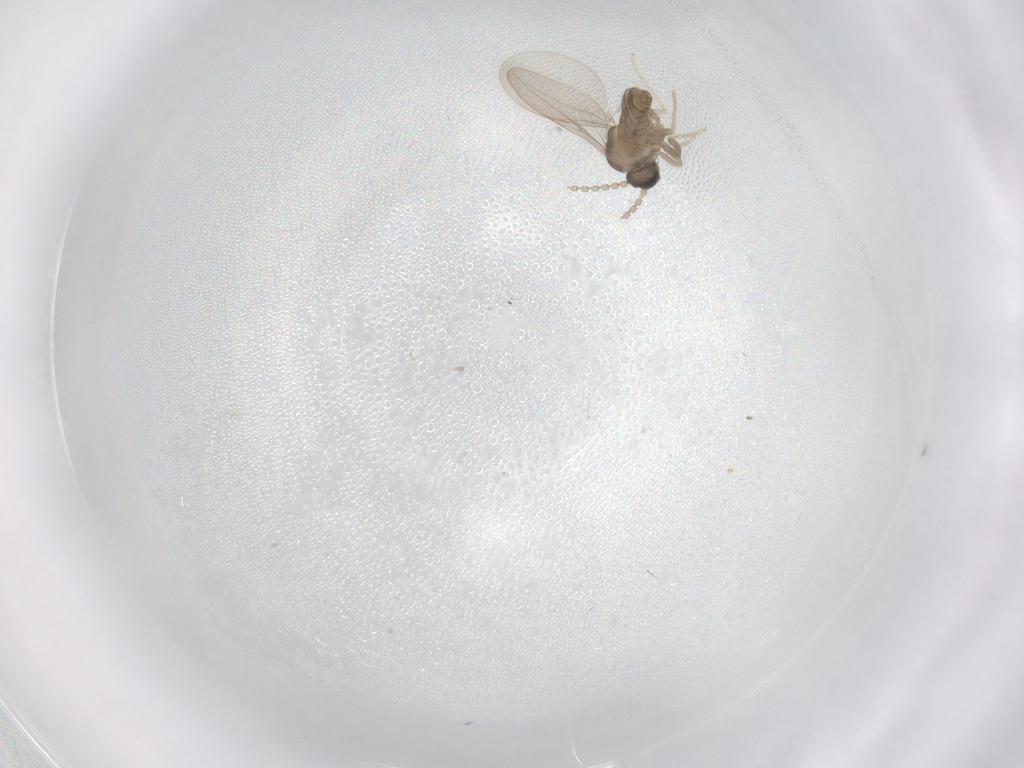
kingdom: Animalia
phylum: Arthropoda
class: Insecta
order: Diptera
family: Cecidomyiidae
